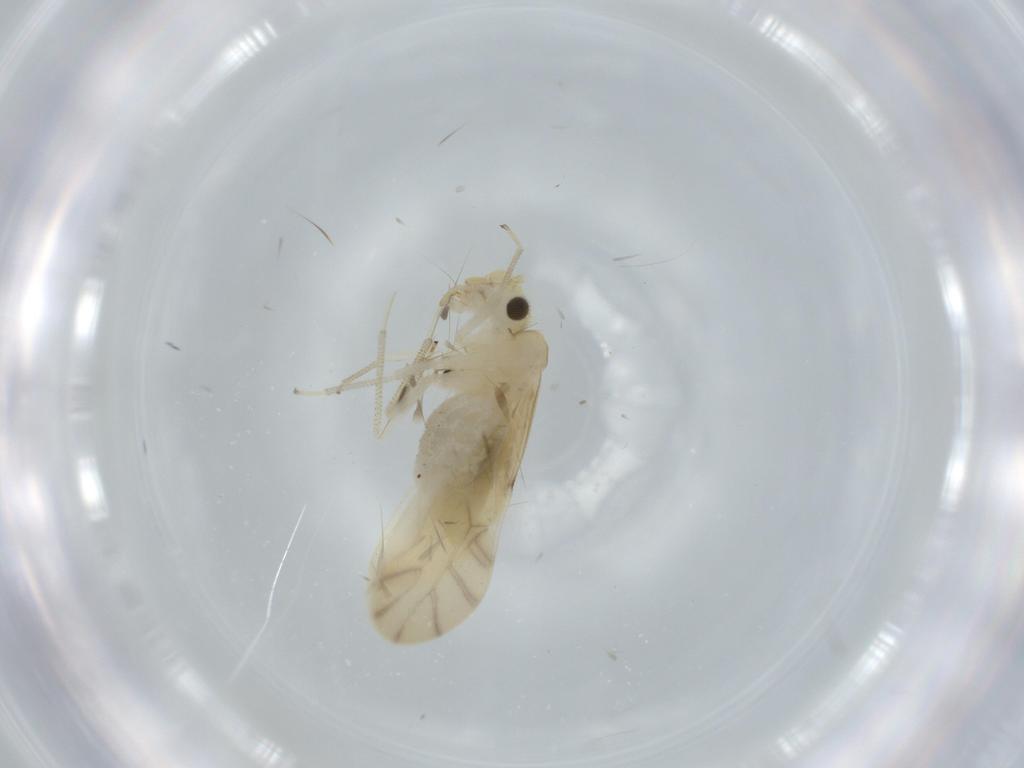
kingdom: Animalia
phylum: Arthropoda
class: Insecta
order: Psocodea
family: Caeciliusidae
